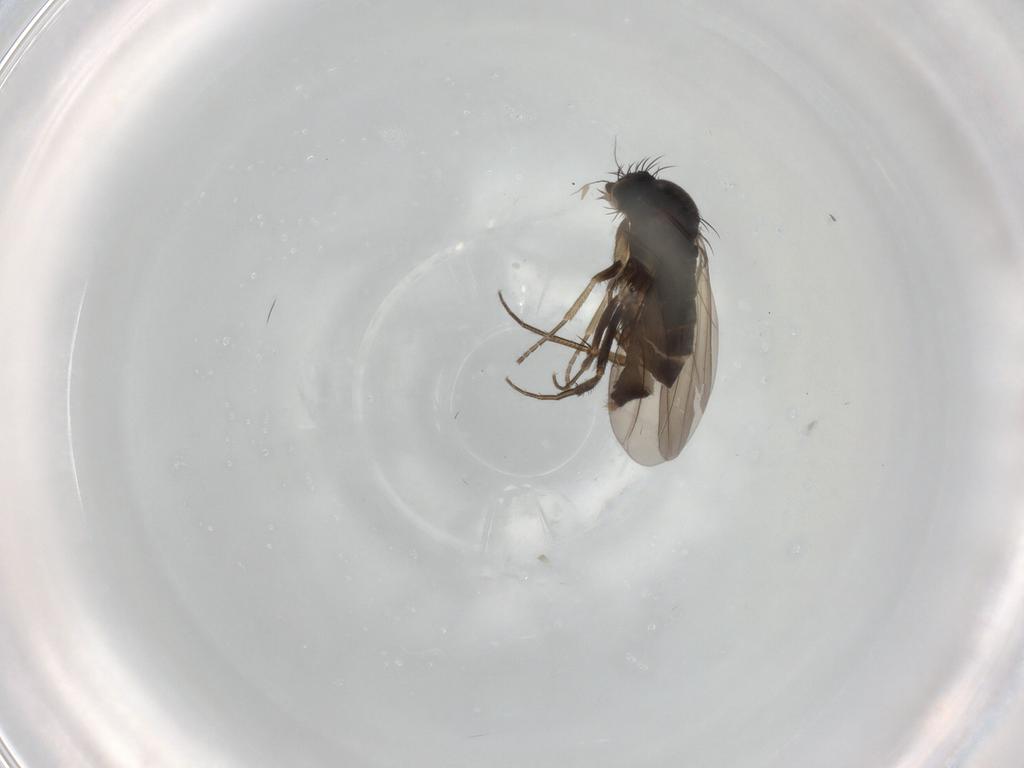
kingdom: Animalia
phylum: Arthropoda
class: Insecta
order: Diptera
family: Phoridae
